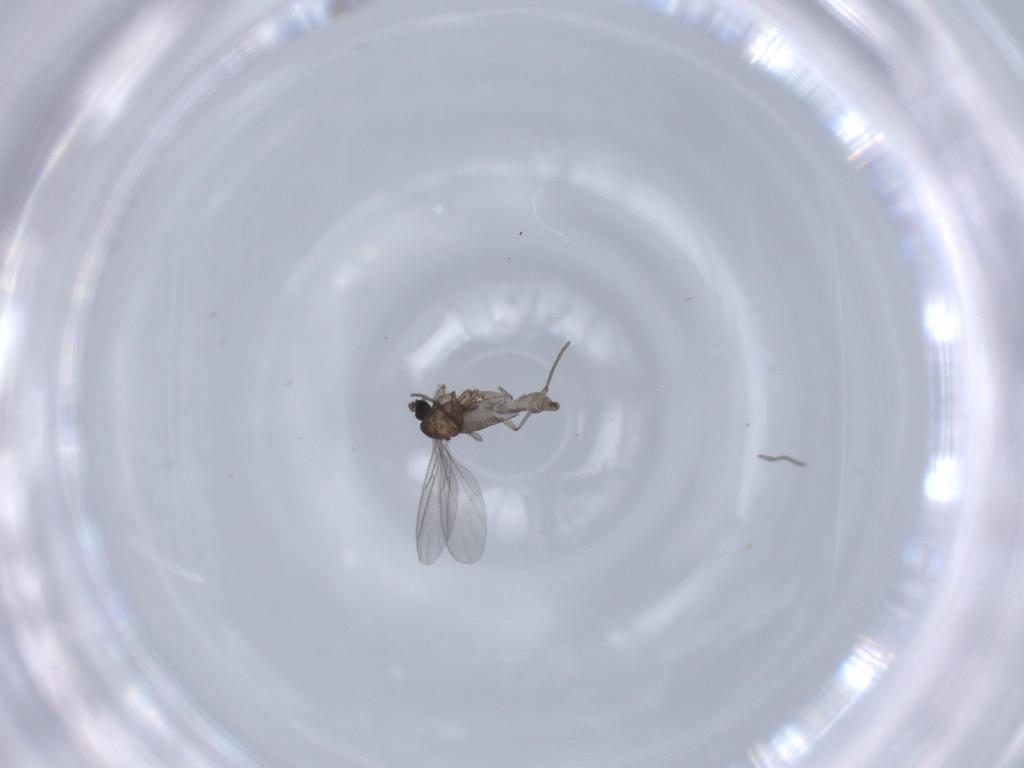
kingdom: Animalia
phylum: Arthropoda
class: Insecta
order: Diptera
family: Sciaridae
